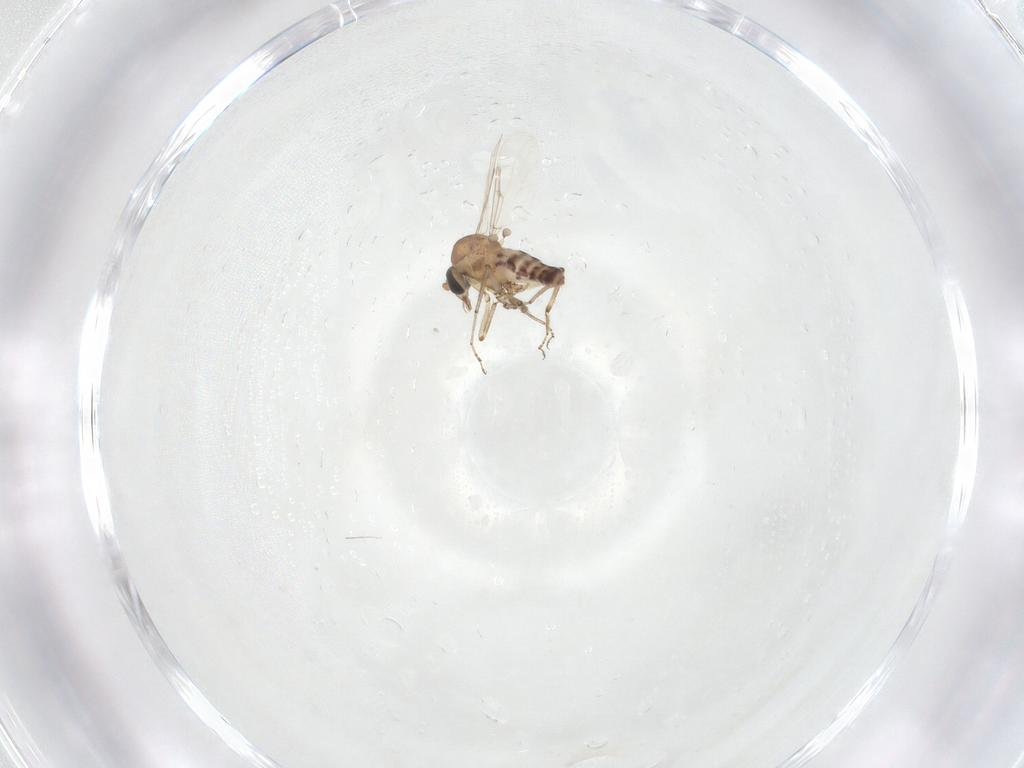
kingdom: Animalia
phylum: Arthropoda
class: Insecta
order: Diptera
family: Ceratopogonidae
